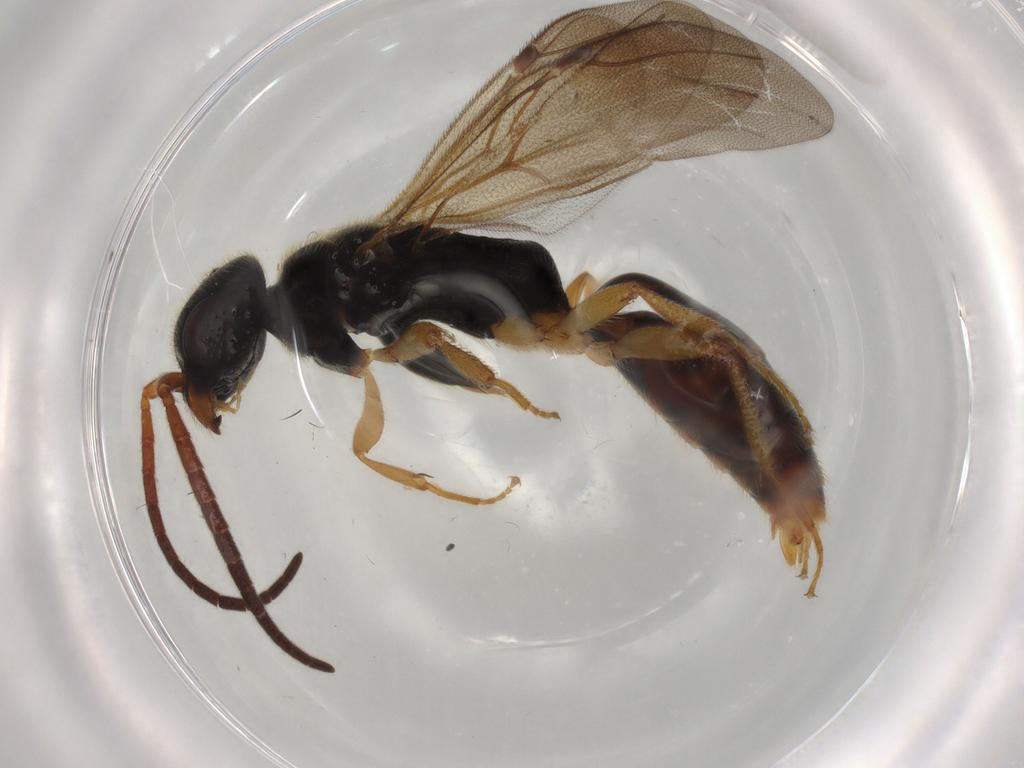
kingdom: Animalia
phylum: Arthropoda
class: Insecta
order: Hymenoptera
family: Bethylidae
